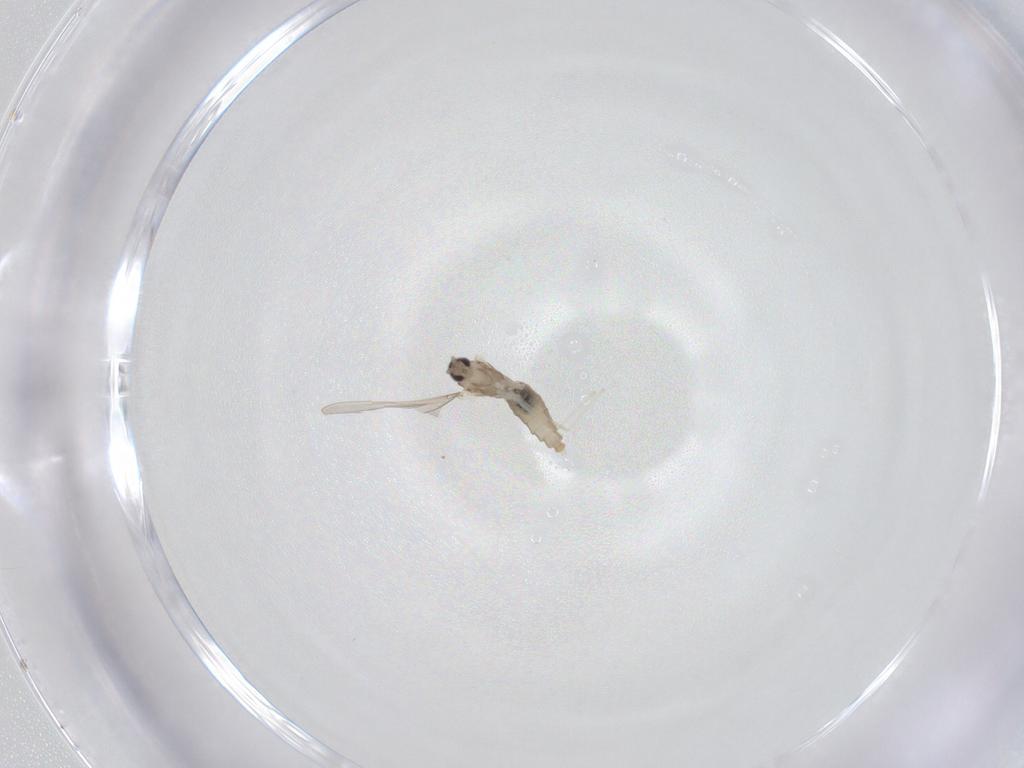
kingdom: Animalia
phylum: Arthropoda
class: Insecta
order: Diptera
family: Cecidomyiidae
